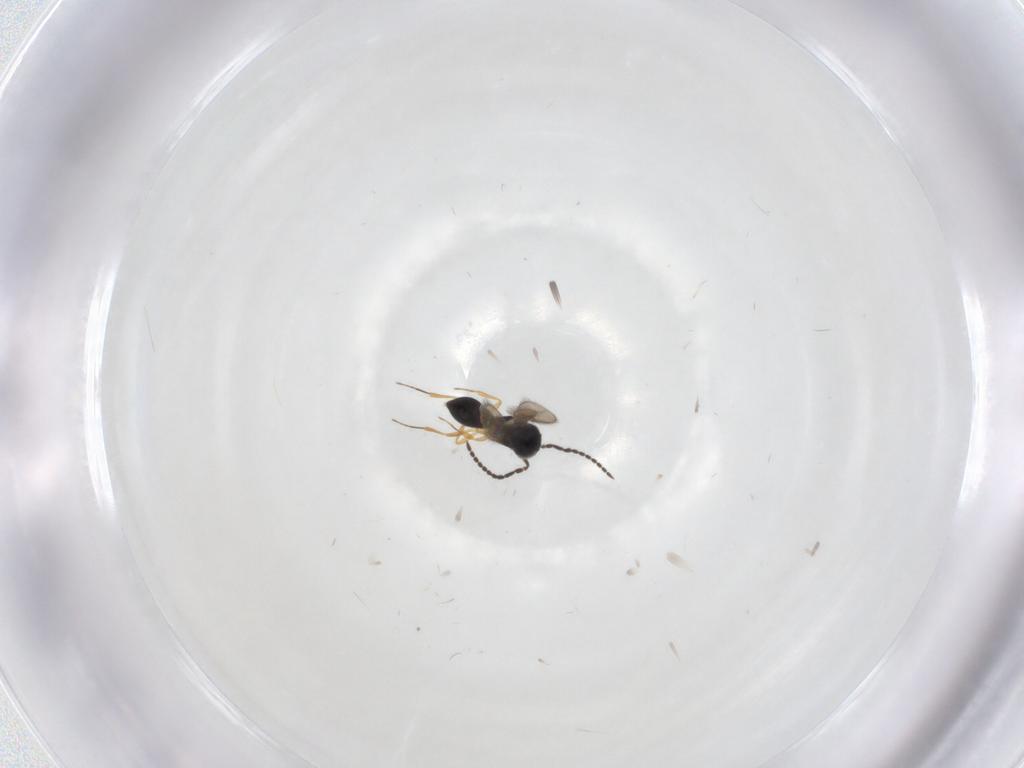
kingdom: Animalia
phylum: Arthropoda
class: Insecta
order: Hymenoptera
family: Scelionidae
